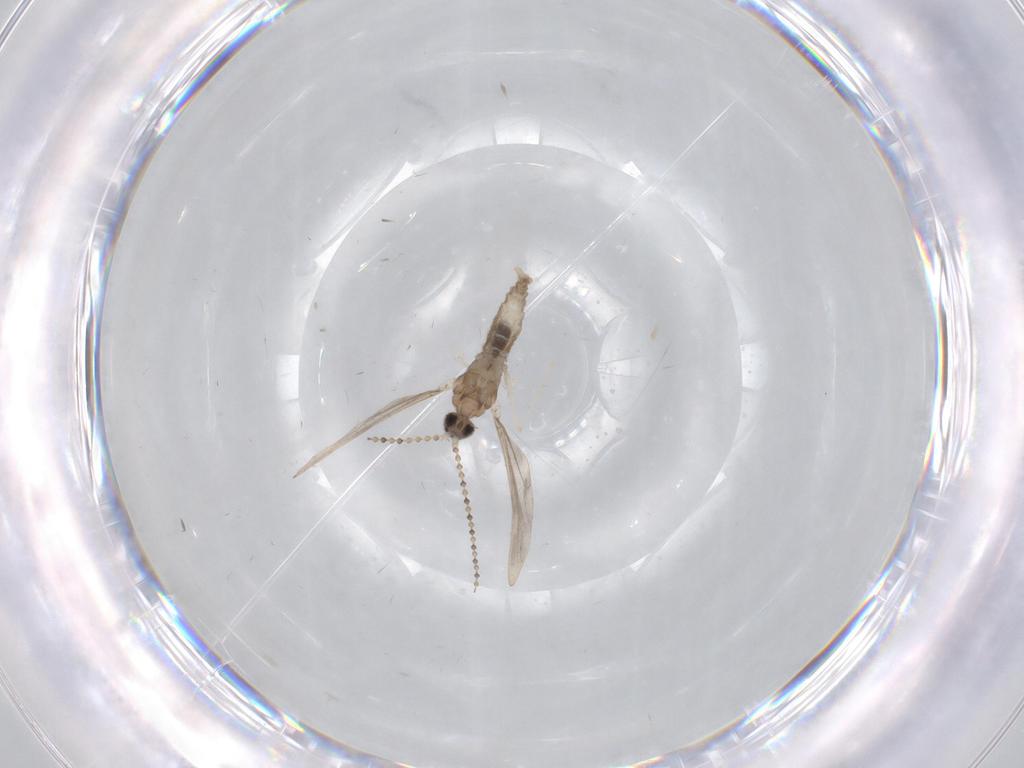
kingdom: Animalia
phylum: Arthropoda
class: Insecta
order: Diptera
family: Cecidomyiidae
